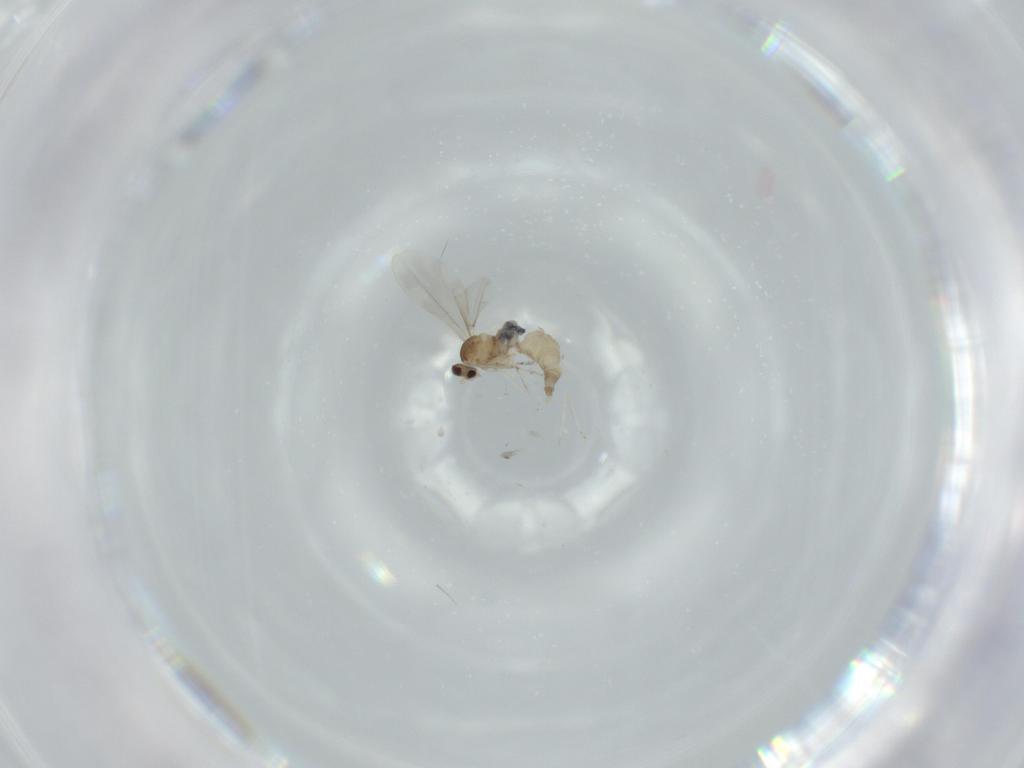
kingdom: Animalia
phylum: Arthropoda
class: Insecta
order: Diptera
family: Cecidomyiidae
